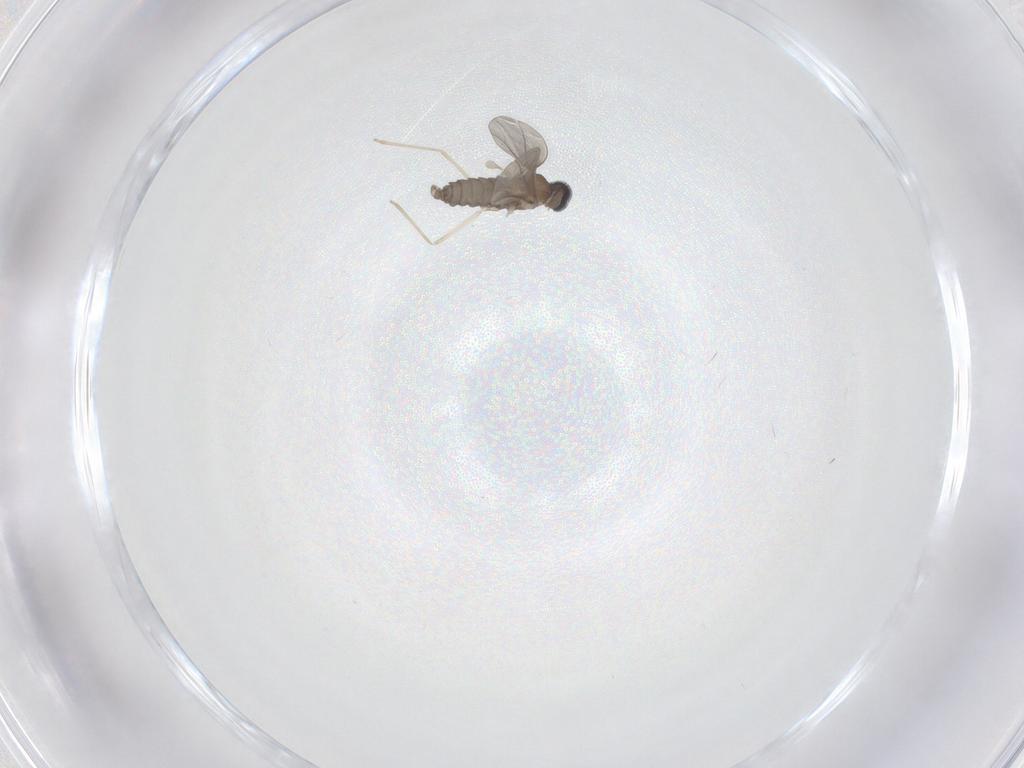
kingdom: Animalia
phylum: Arthropoda
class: Insecta
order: Diptera
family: Cecidomyiidae
